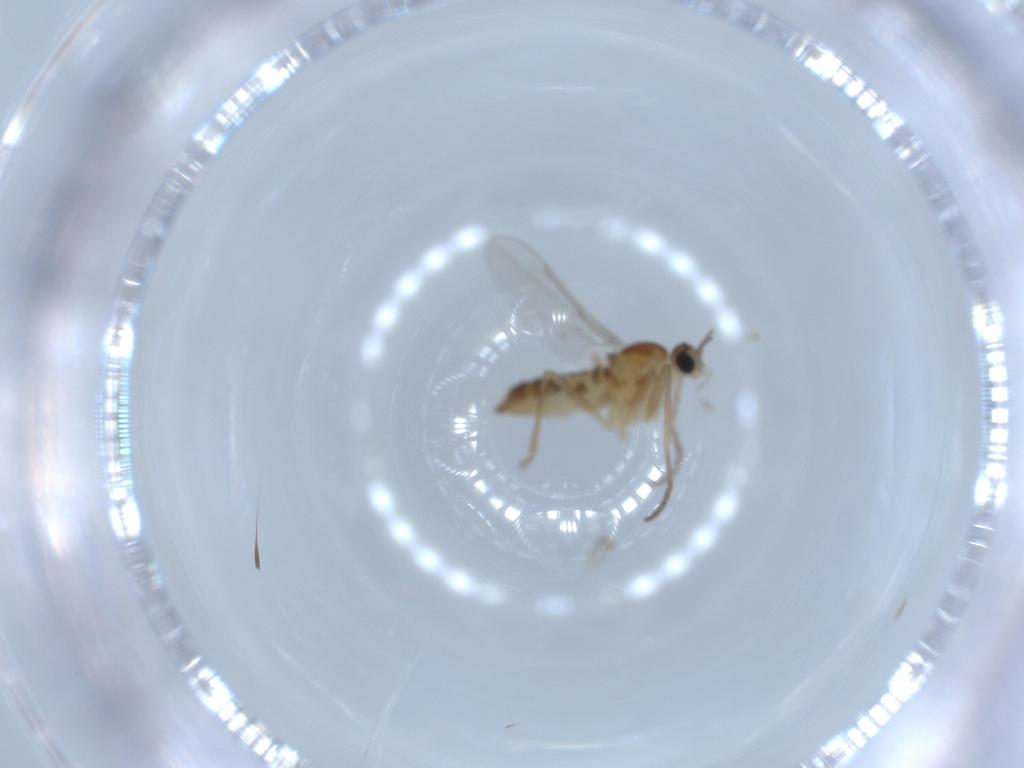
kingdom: Animalia
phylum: Arthropoda
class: Insecta
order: Diptera
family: Cecidomyiidae
